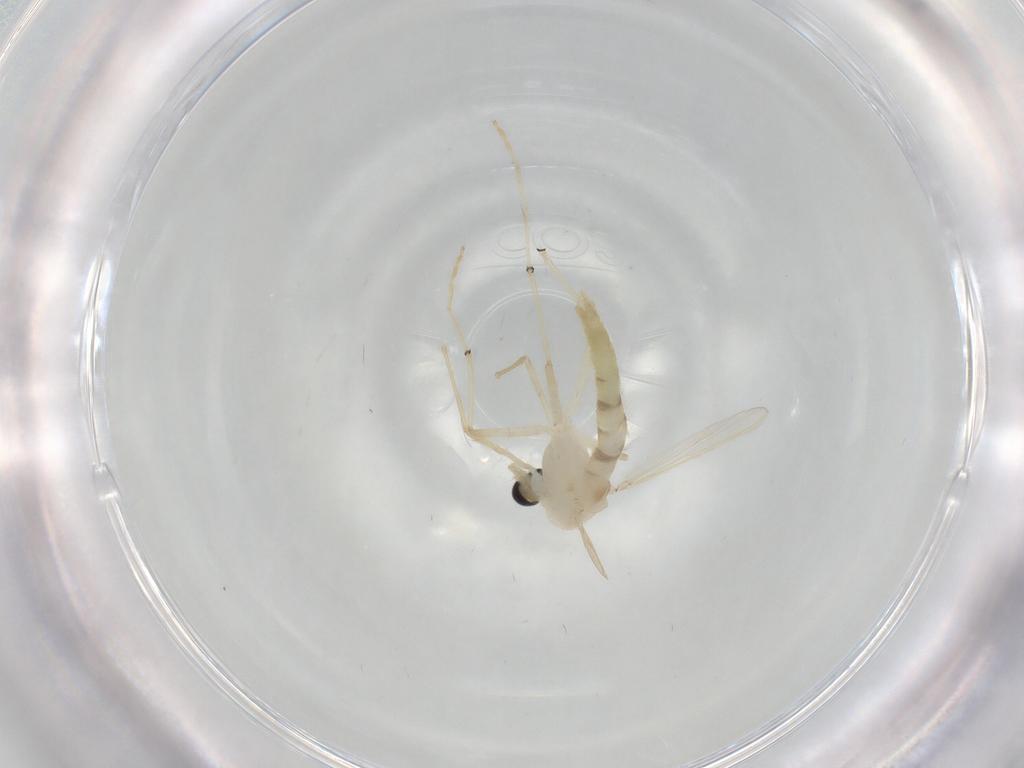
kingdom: Animalia
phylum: Arthropoda
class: Insecta
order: Diptera
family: Chironomidae
